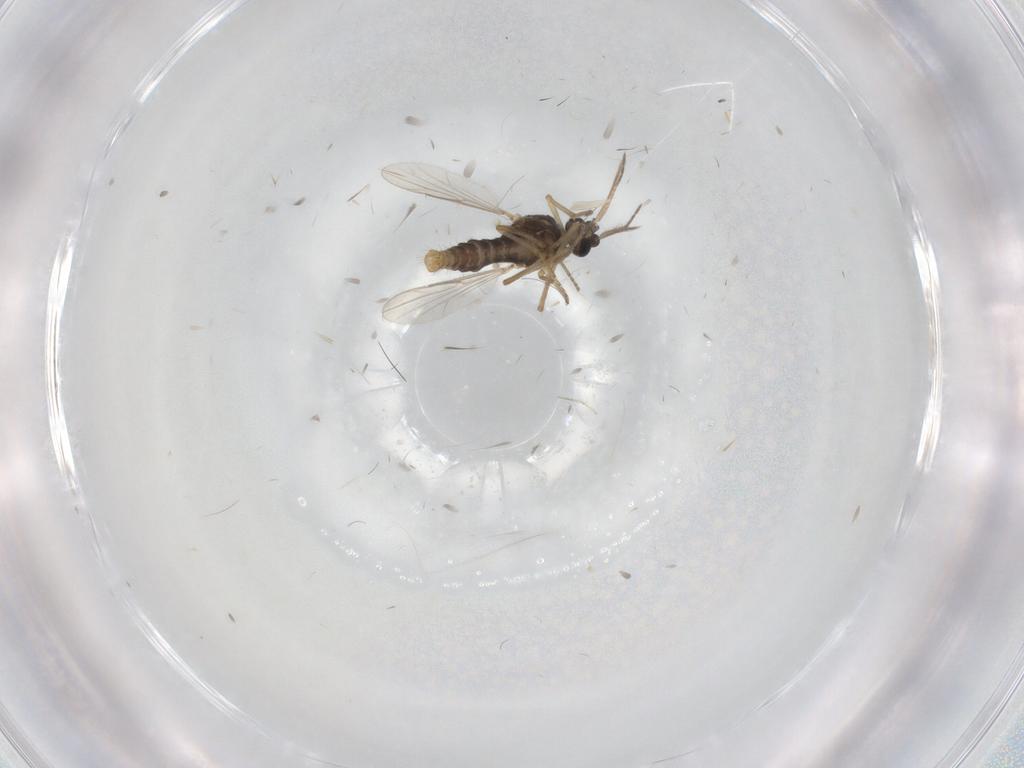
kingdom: Animalia
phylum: Arthropoda
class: Insecta
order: Diptera
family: Ceratopogonidae
